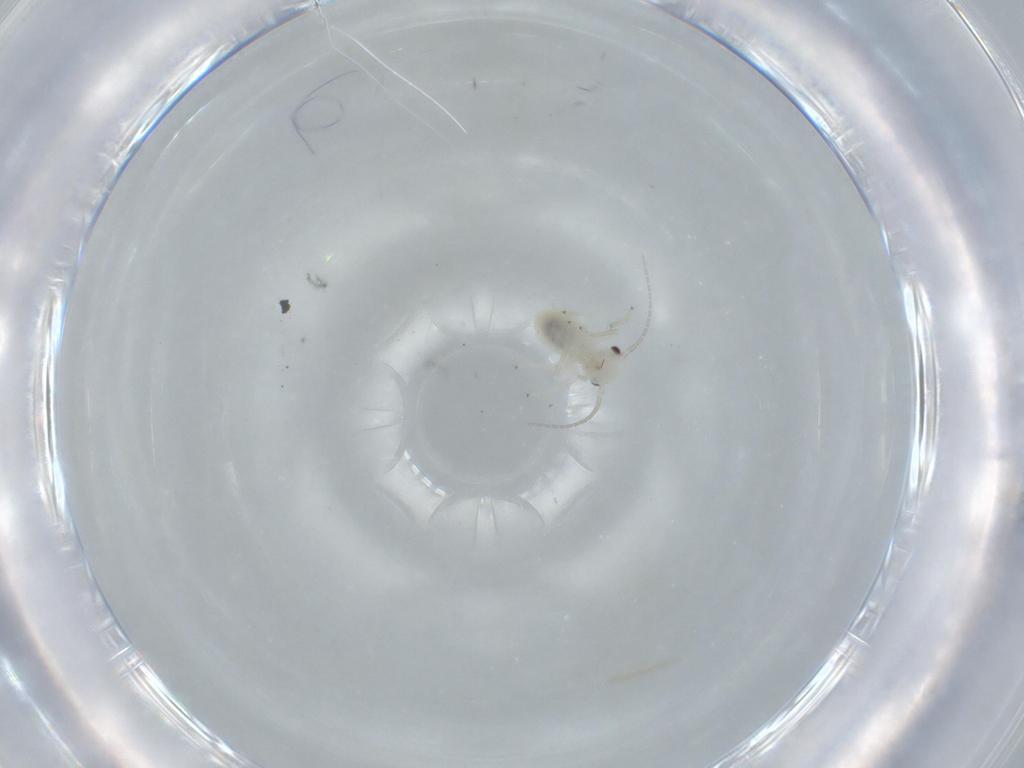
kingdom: Animalia
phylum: Arthropoda
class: Insecta
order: Psocodea
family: Caeciliusidae
